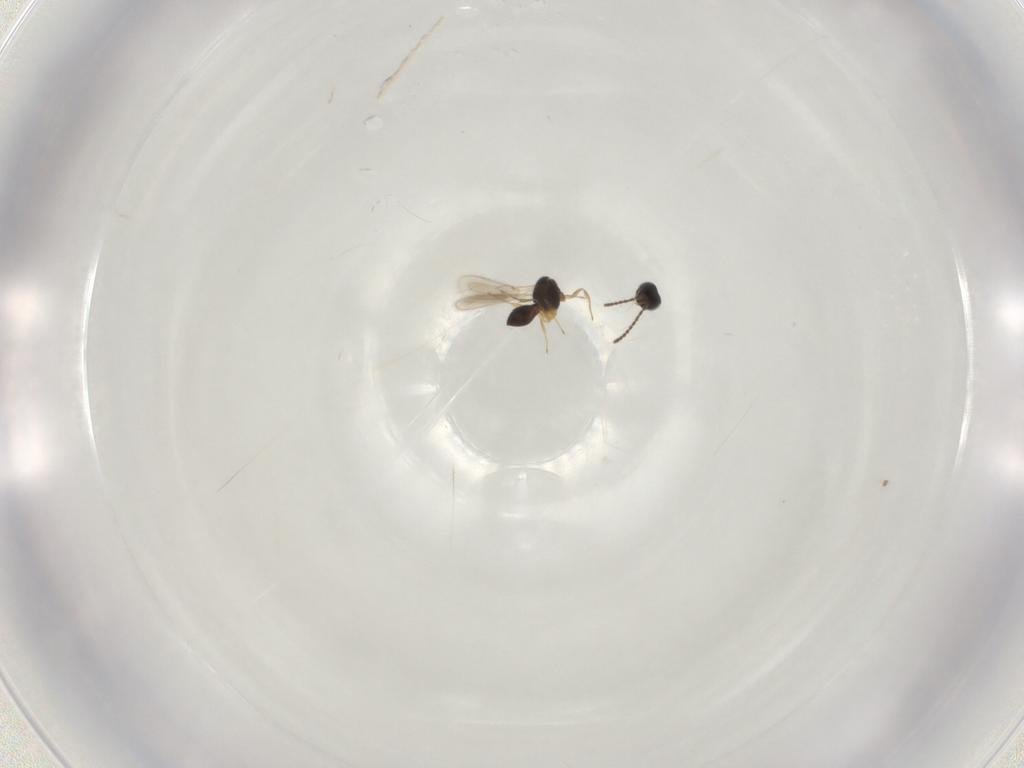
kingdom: Animalia
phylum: Arthropoda
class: Insecta
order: Hymenoptera
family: Scelionidae
